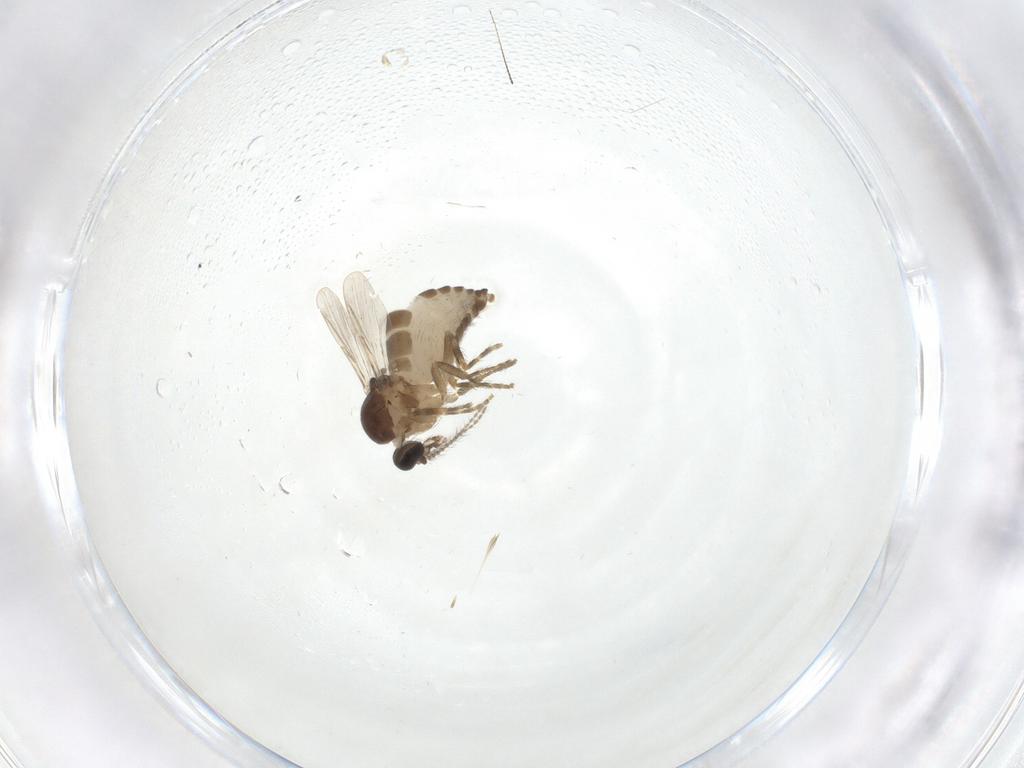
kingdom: Animalia
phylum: Arthropoda
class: Insecta
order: Diptera
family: Ceratopogonidae
